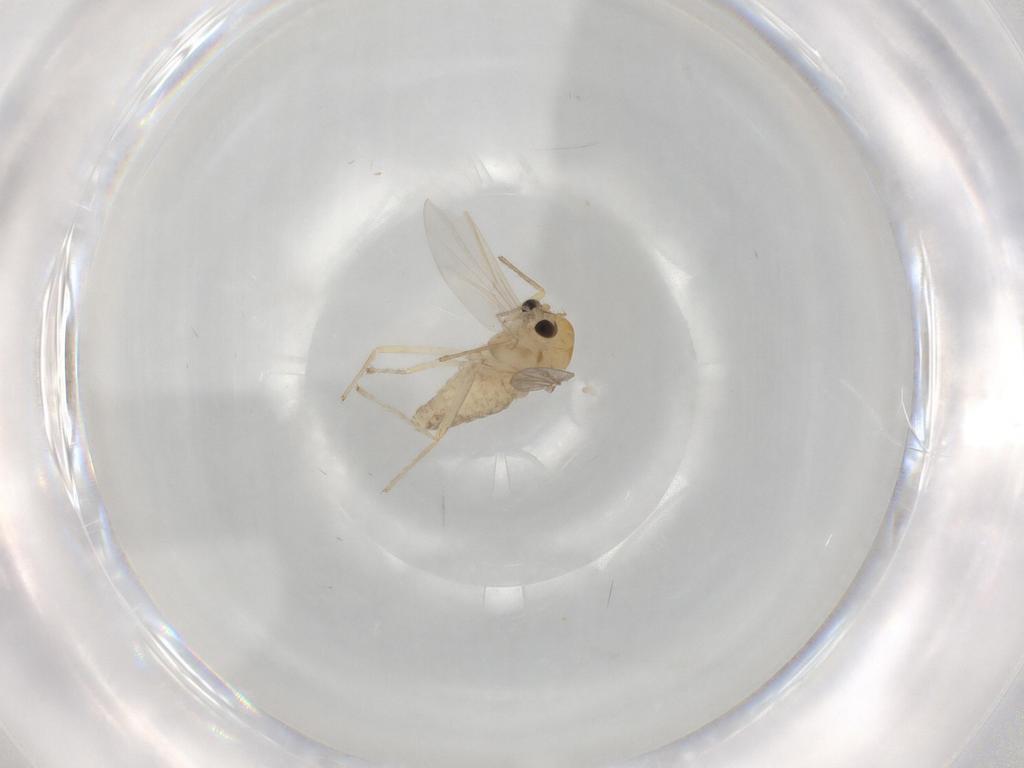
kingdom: Animalia
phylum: Arthropoda
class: Insecta
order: Diptera
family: Chironomidae
